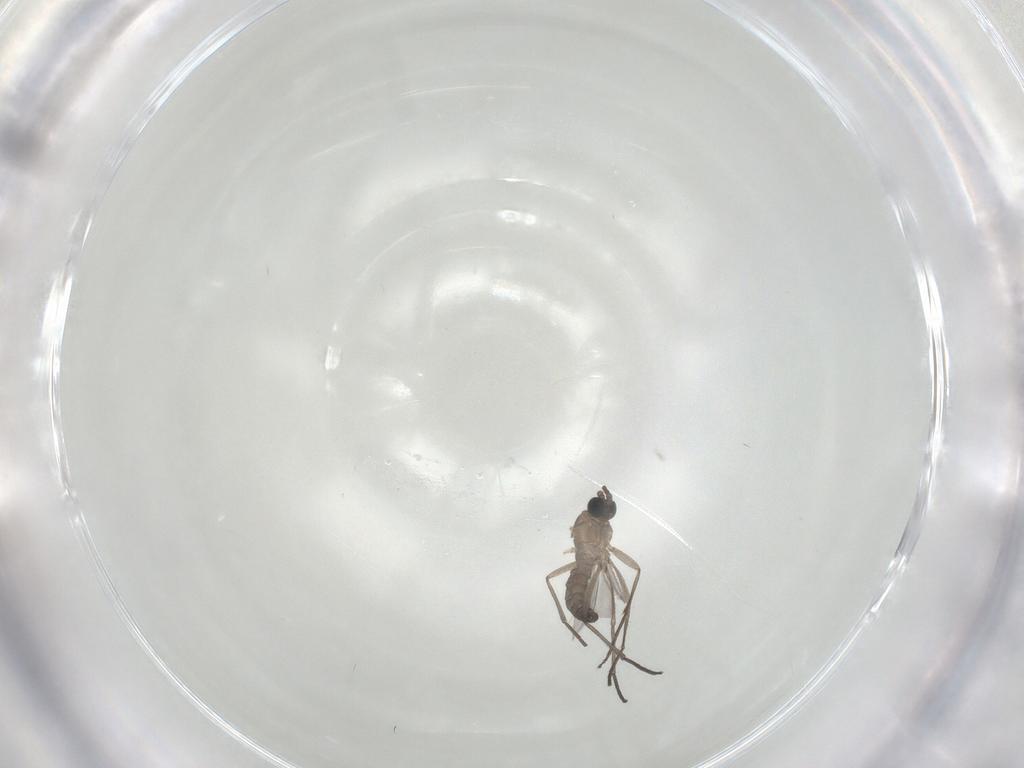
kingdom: Animalia
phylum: Arthropoda
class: Insecta
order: Diptera
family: Sciaridae
